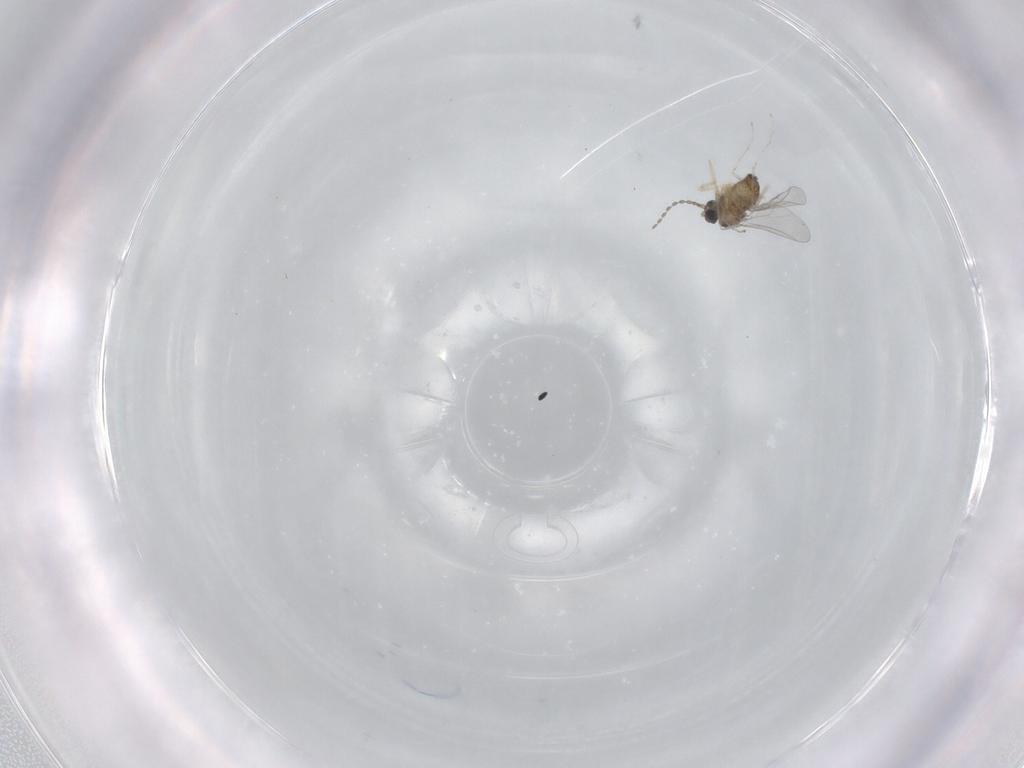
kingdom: Animalia
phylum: Arthropoda
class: Insecta
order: Diptera
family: Cecidomyiidae
